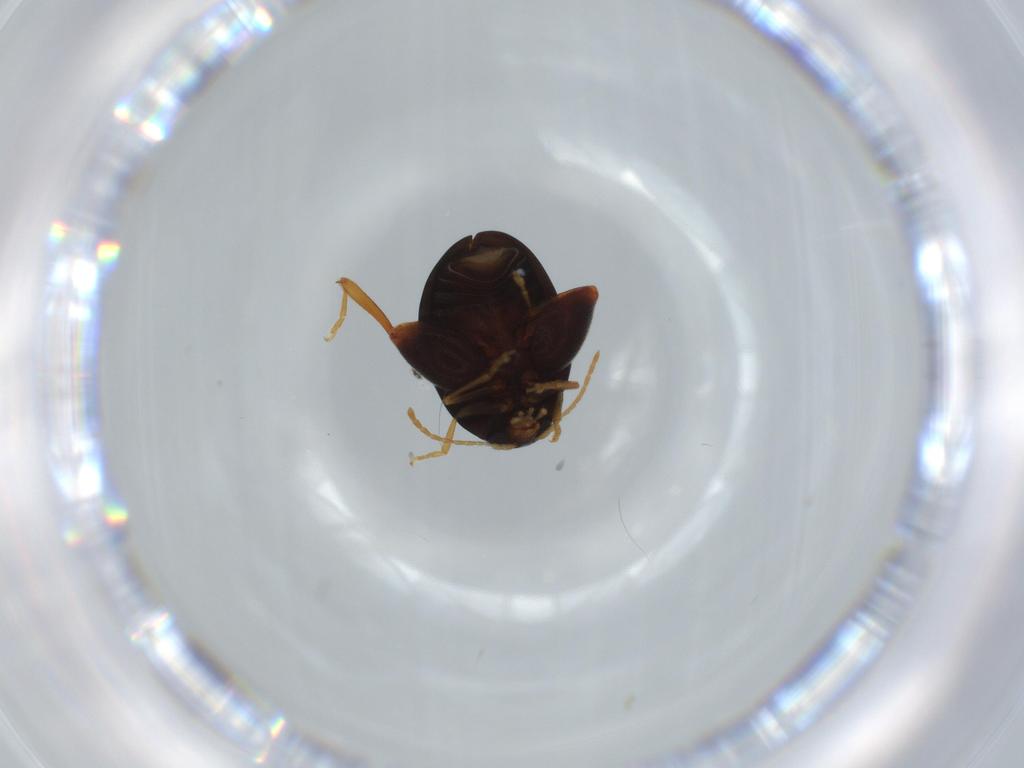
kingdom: Animalia
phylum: Arthropoda
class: Insecta
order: Coleoptera
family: Chrysomelidae
